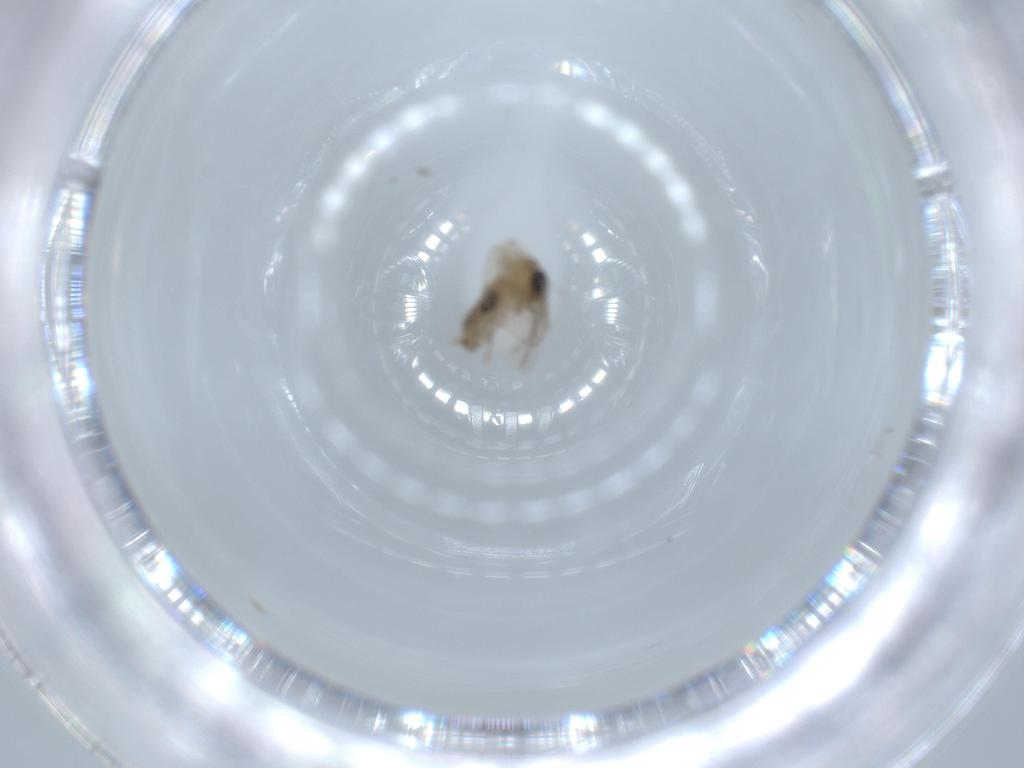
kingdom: Animalia
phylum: Arthropoda
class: Insecta
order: Diptera
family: Psychodidae
